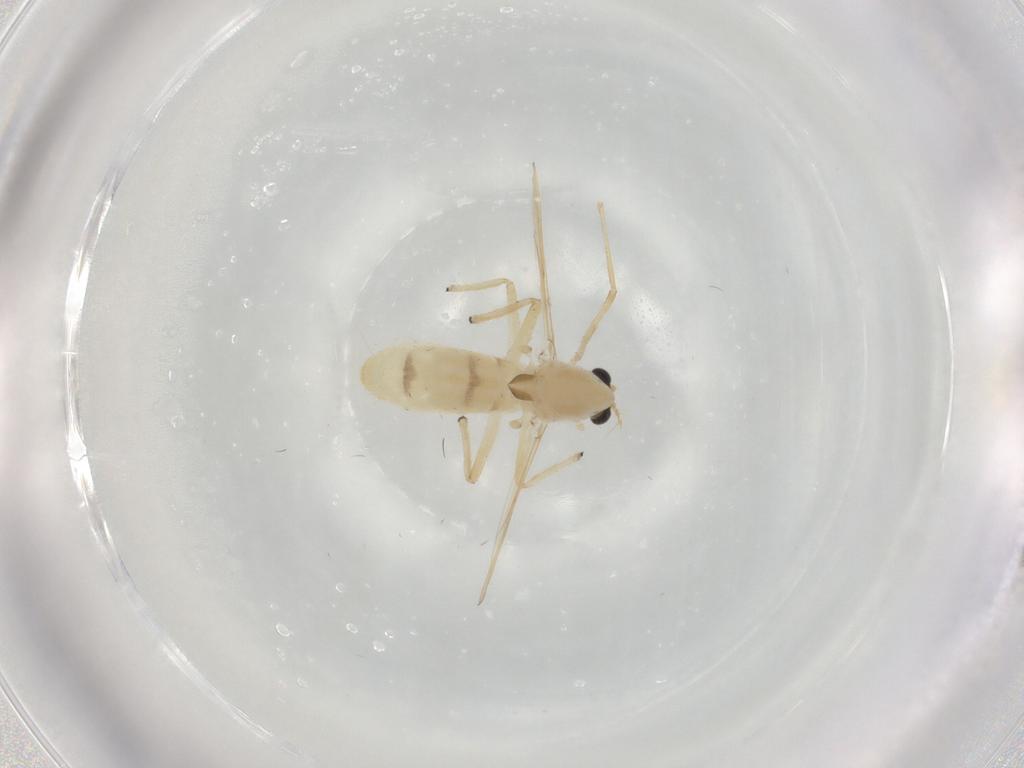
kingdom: Animalia
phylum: Arthropoda
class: Insecta
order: Diptera
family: Chironomidae
